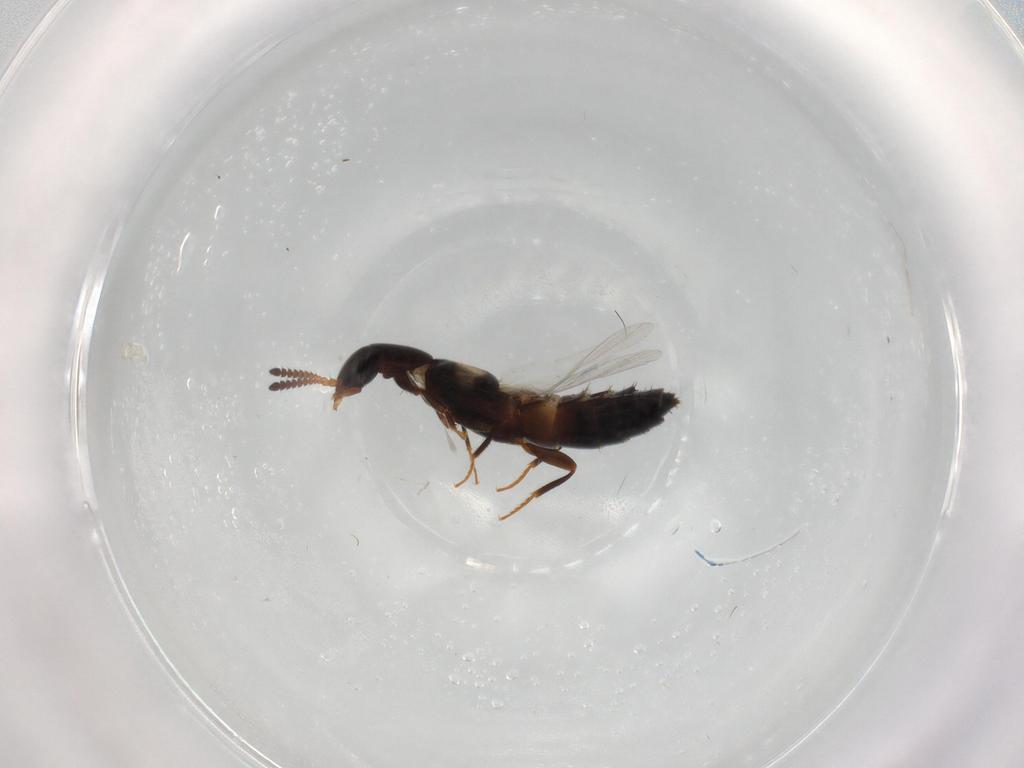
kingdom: Animalia
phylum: Arthropoda
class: Insecta
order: Coleoptera
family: Staphylinidae
